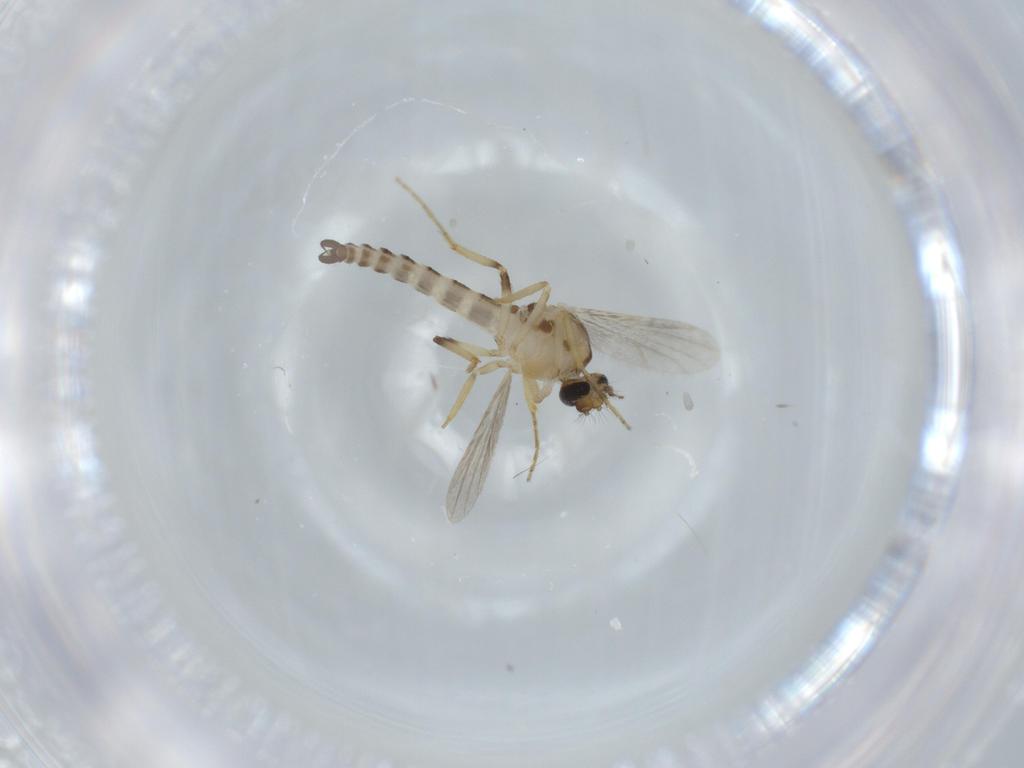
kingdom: Animalia
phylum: Arthropoda
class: Insecta
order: Diptera
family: Ceratopogonidae
